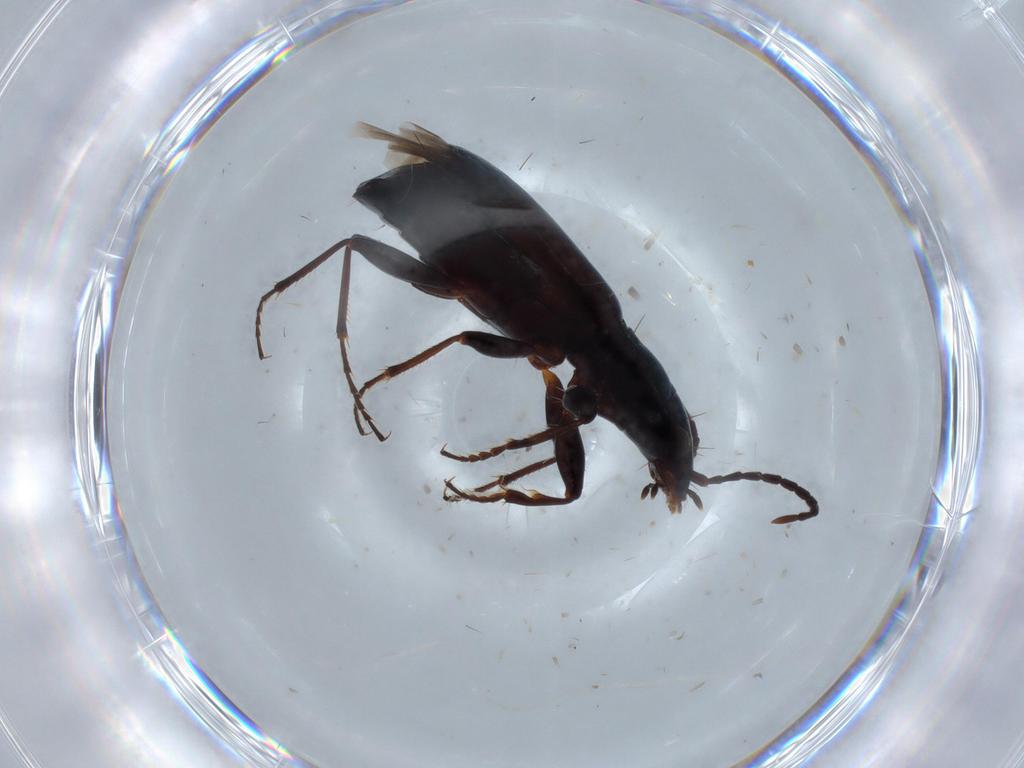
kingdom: Animalia
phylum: Arthropoda
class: Insecta
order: Coleoptera
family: Carabidae
